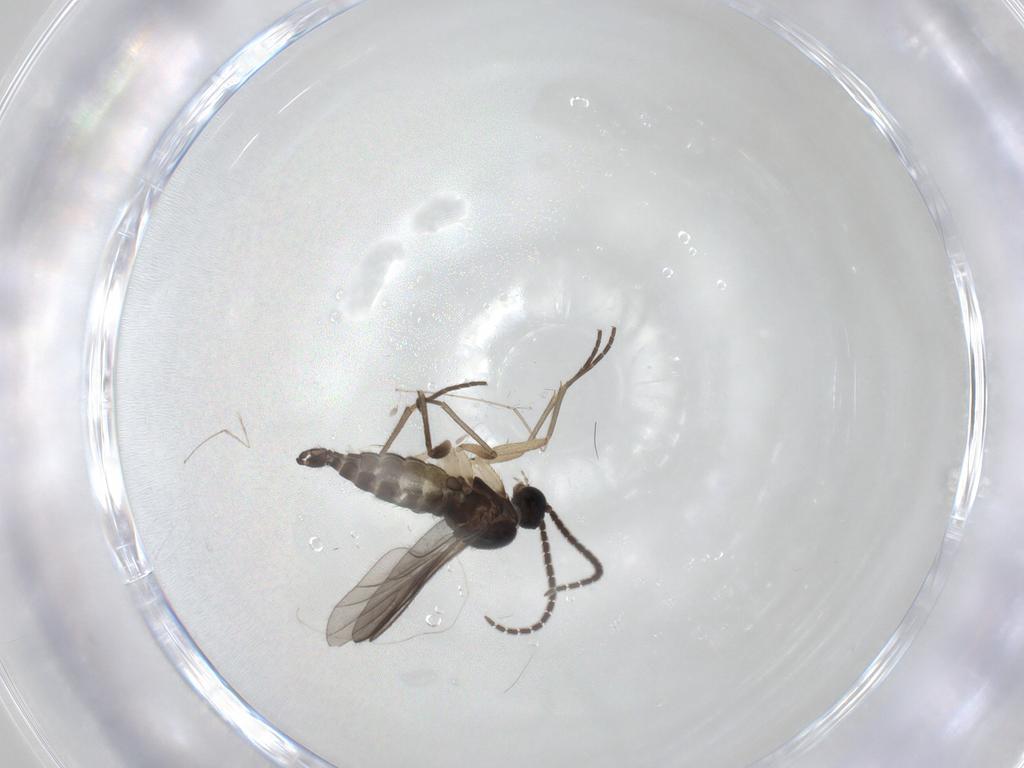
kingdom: Animalia
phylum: Arthropoda
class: Insecta
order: Diptera
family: Sciaridae
